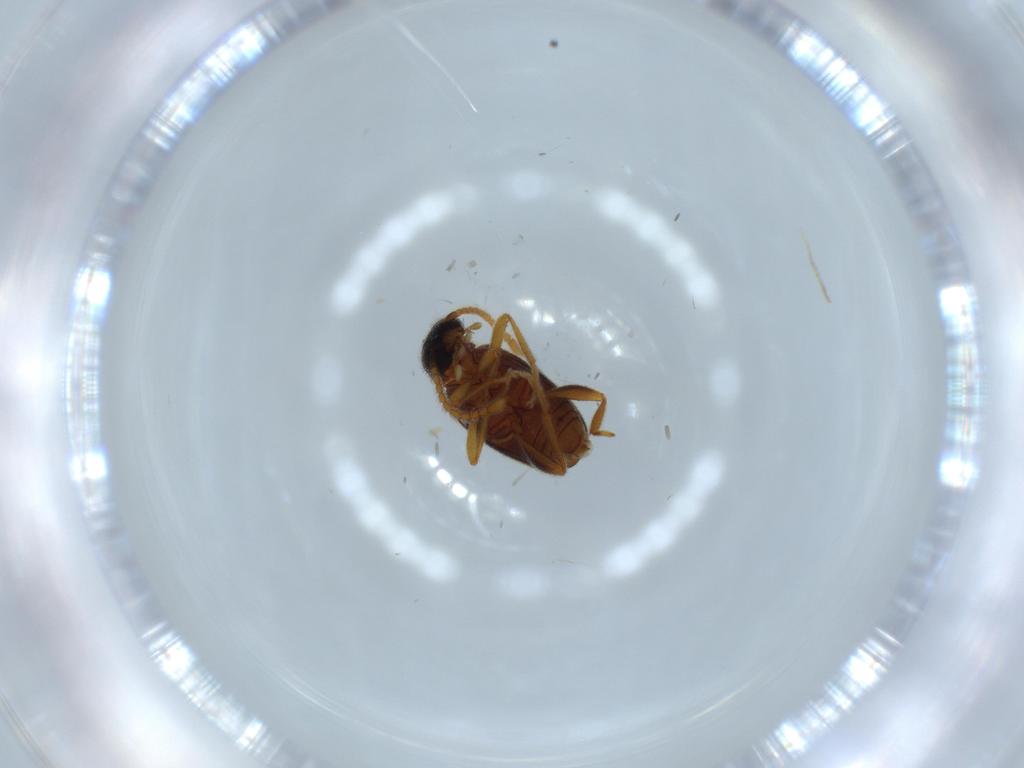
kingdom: Animalia
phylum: Arthropoda
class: Insecta
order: Coleoptera
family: Aderidae
